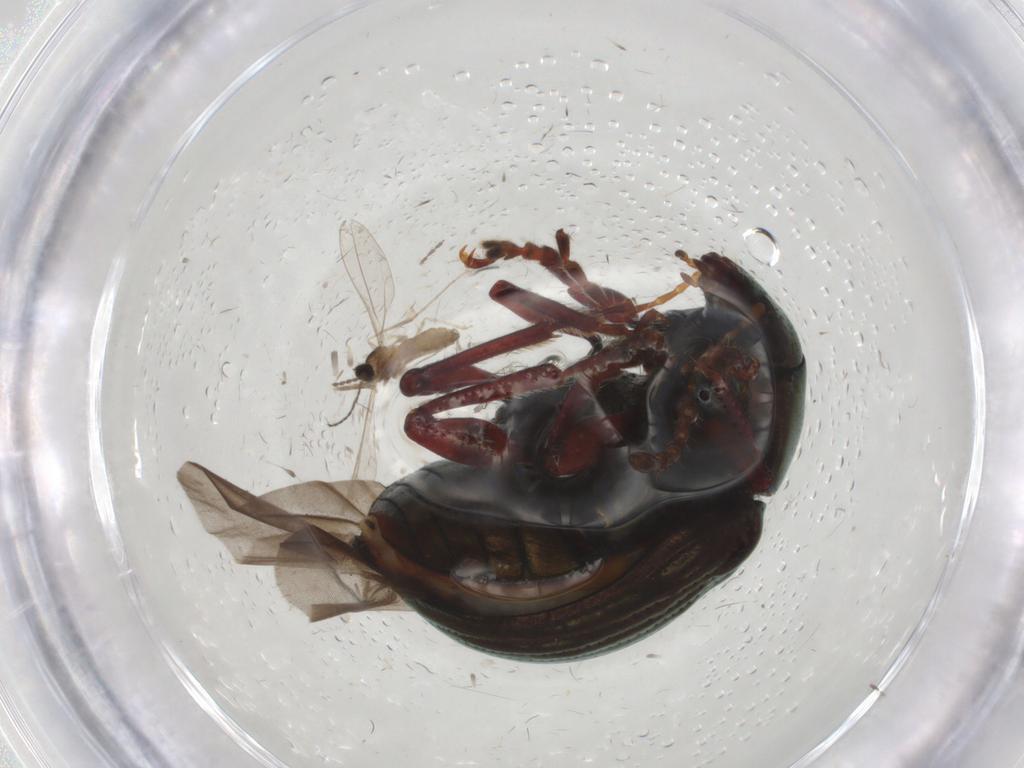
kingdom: Animalia
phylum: Arthropoda
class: Insecta
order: Diptera
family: Cecidomyiidae
